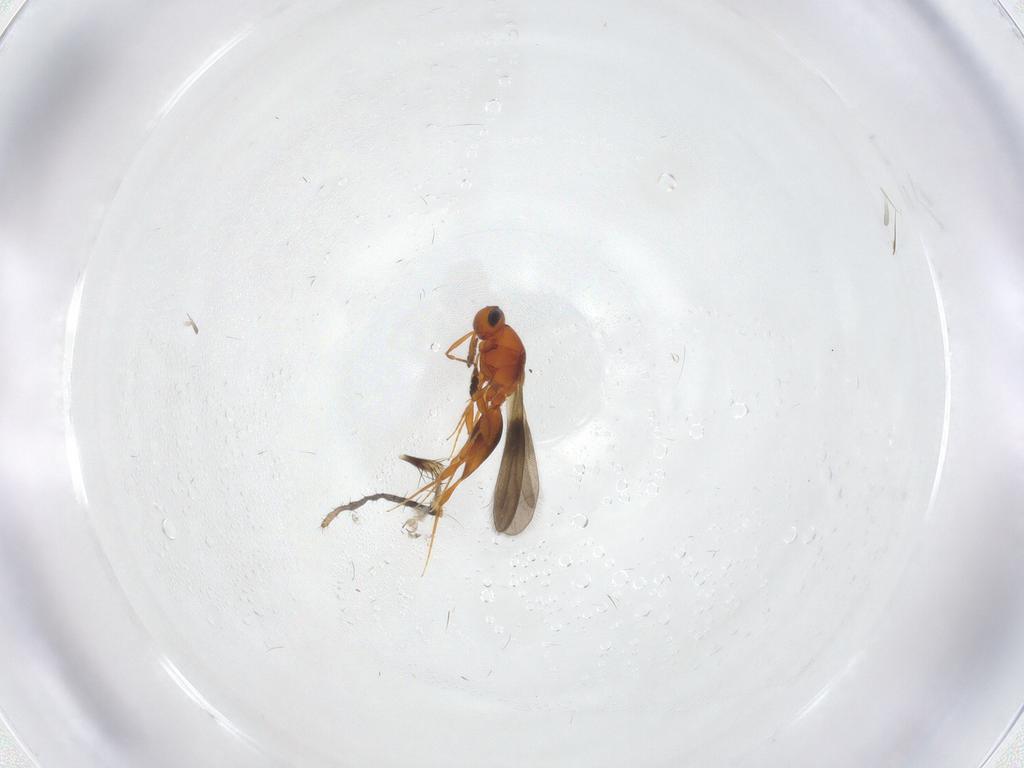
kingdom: Animalia
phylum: Arthropoda
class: Insecta
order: Hymenoptera
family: Platygastridae
